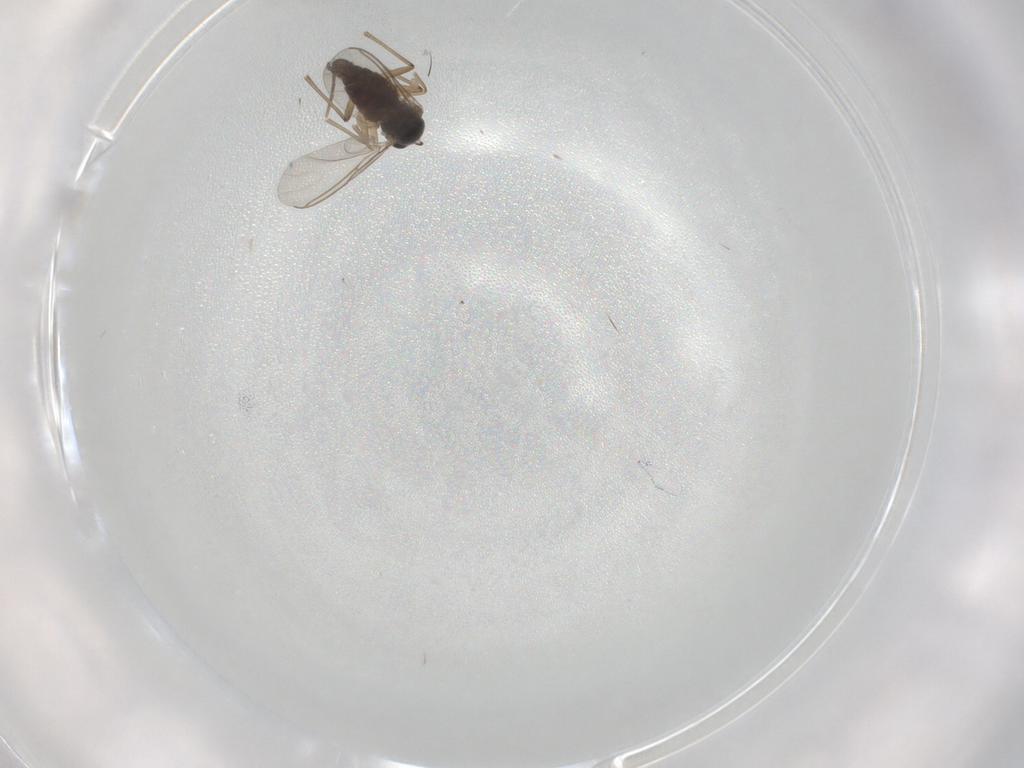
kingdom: Animalia
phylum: Arthropoda
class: Insecta
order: Diptera
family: Sciaridae
